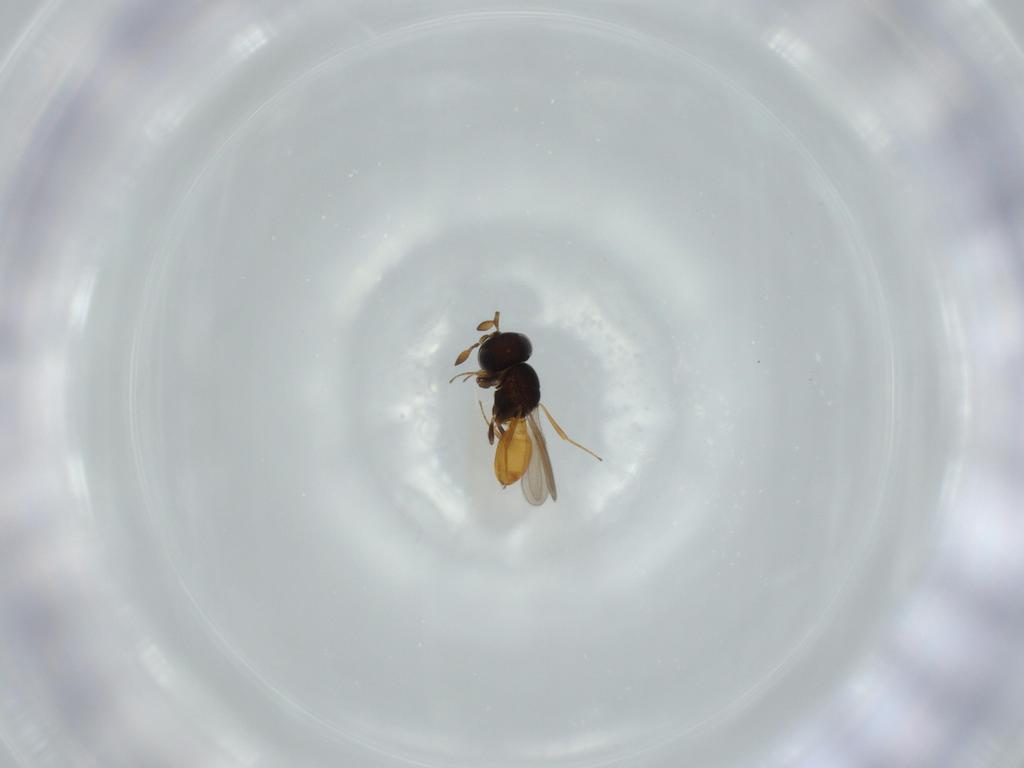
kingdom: Animalia
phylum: Arthropoda
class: Insecta
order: Hymenoptera
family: Scelionidae
